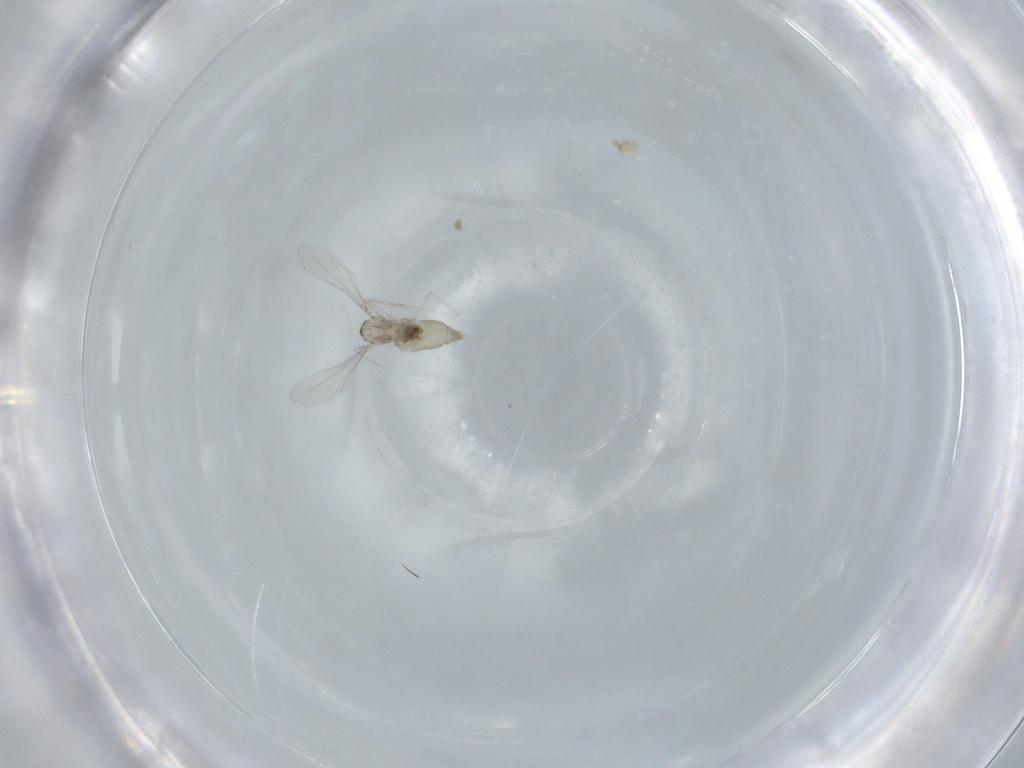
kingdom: Animalia
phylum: Arthropoda
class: Insecta
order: Diptera
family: Cecidomyiidae
